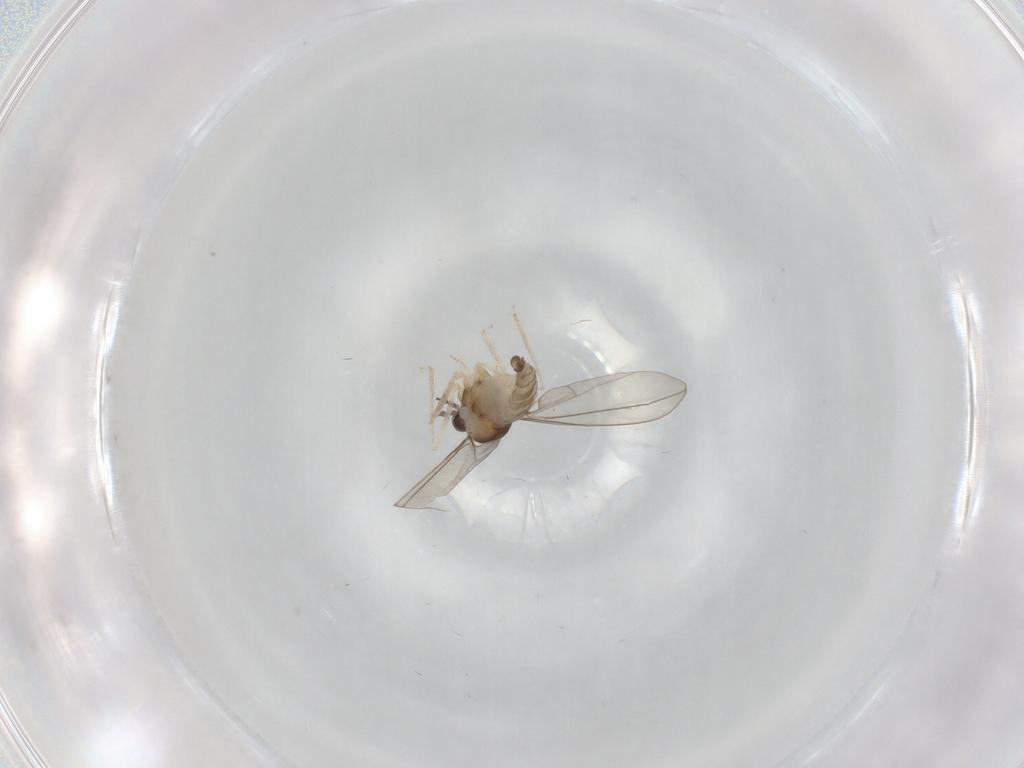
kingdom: Animalia
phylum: Arthropoda
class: Insecta
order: Diptera
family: Cecidomyiidae
